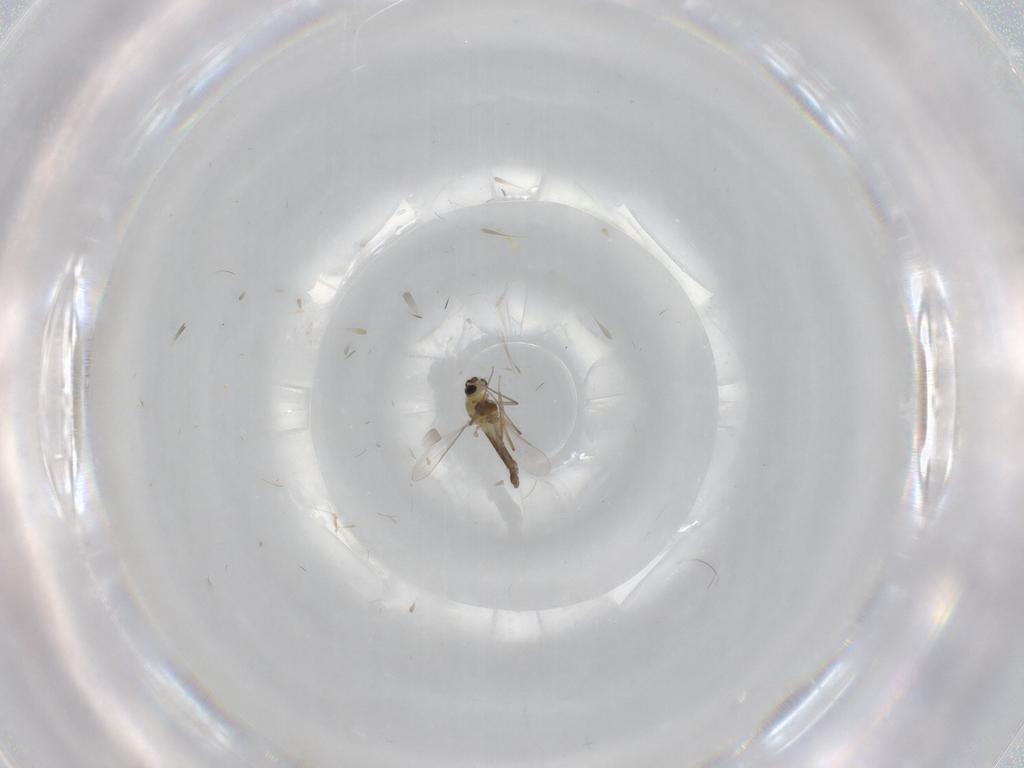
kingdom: Animalia
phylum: Arthropoda
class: Insecta
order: Diptera
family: Chironomidae
